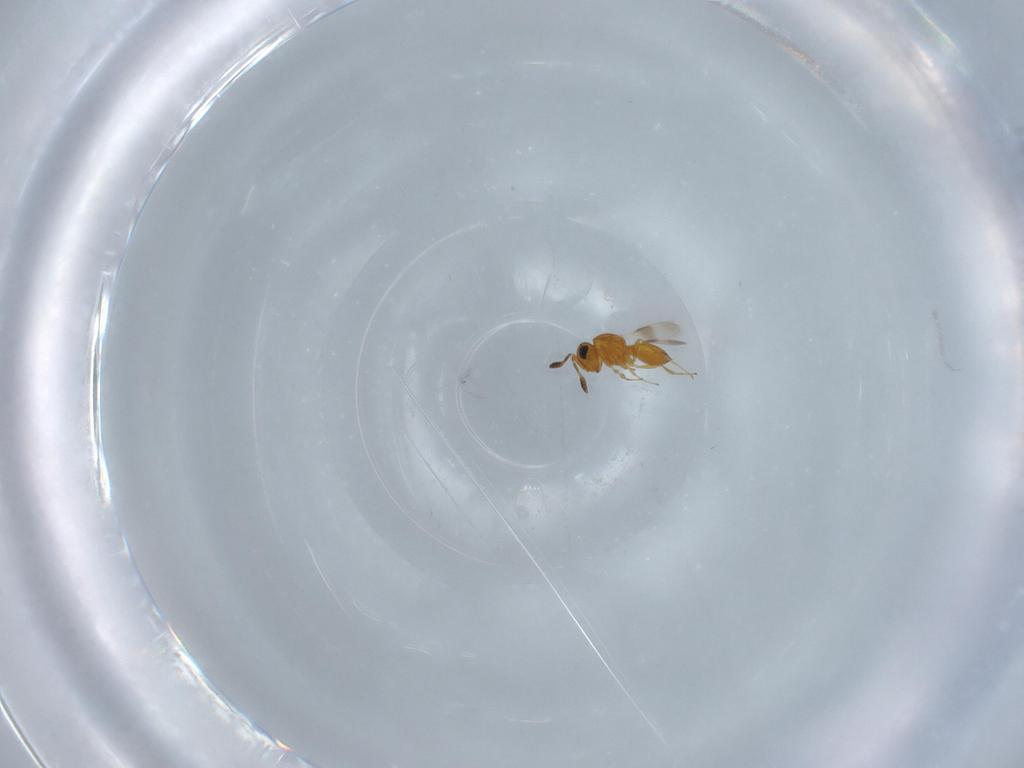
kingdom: Animalia
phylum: Arthropoda
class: Insecta
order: Hymenoptera
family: Scelionidae
